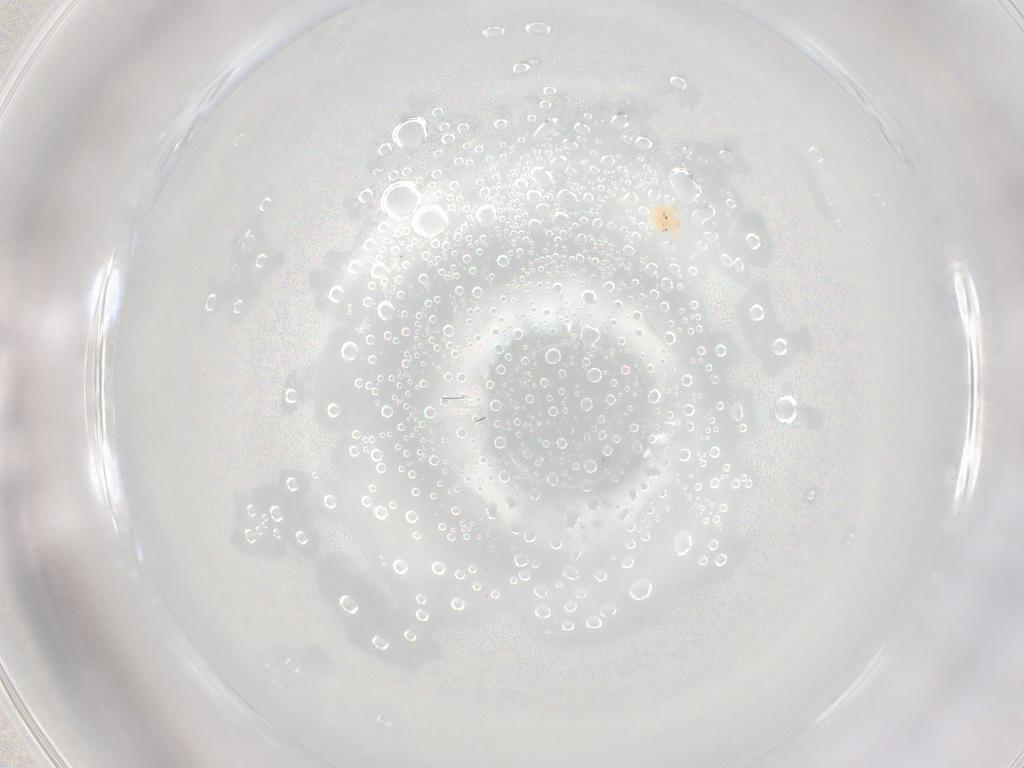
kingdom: Animalia
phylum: Arthropoda
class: Arachnida
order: Trombidiformes
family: Hydryphantidae
